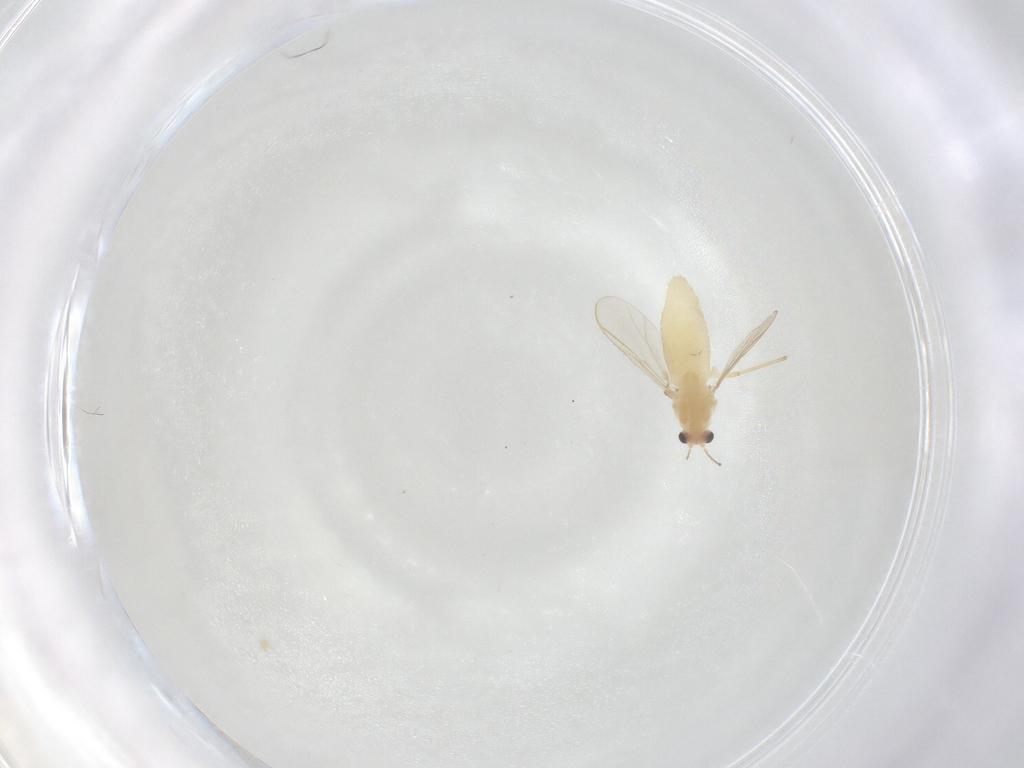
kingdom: Animalia
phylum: Arthropoda
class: Insecta
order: Diptera
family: Chironomidae
